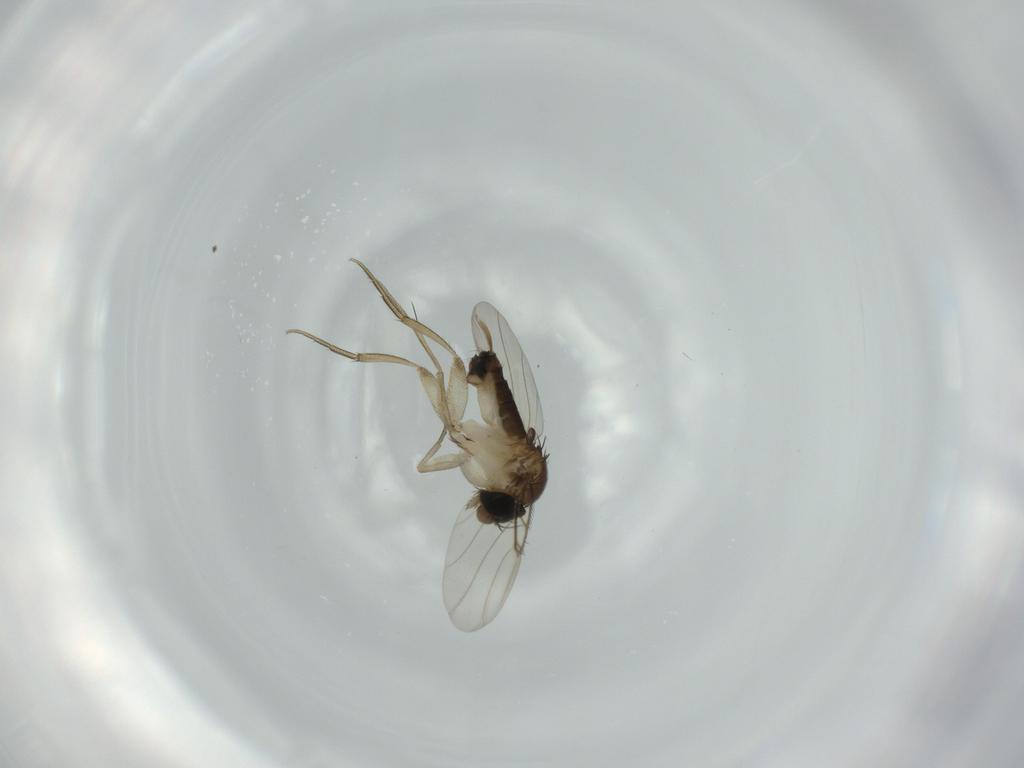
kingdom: Animalia
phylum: Arthropoda
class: Insecta
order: Diptera
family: Phoridae
